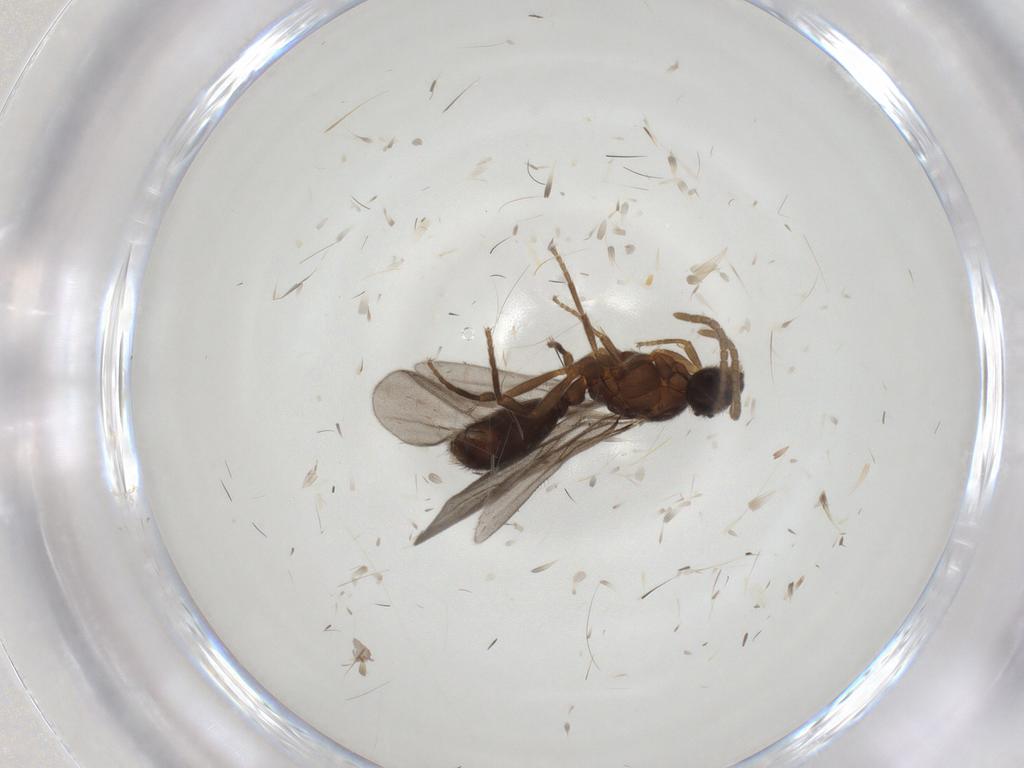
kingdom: Animalia
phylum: Arthropoda
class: Insecta
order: Hymenoptera
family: Formicidae
